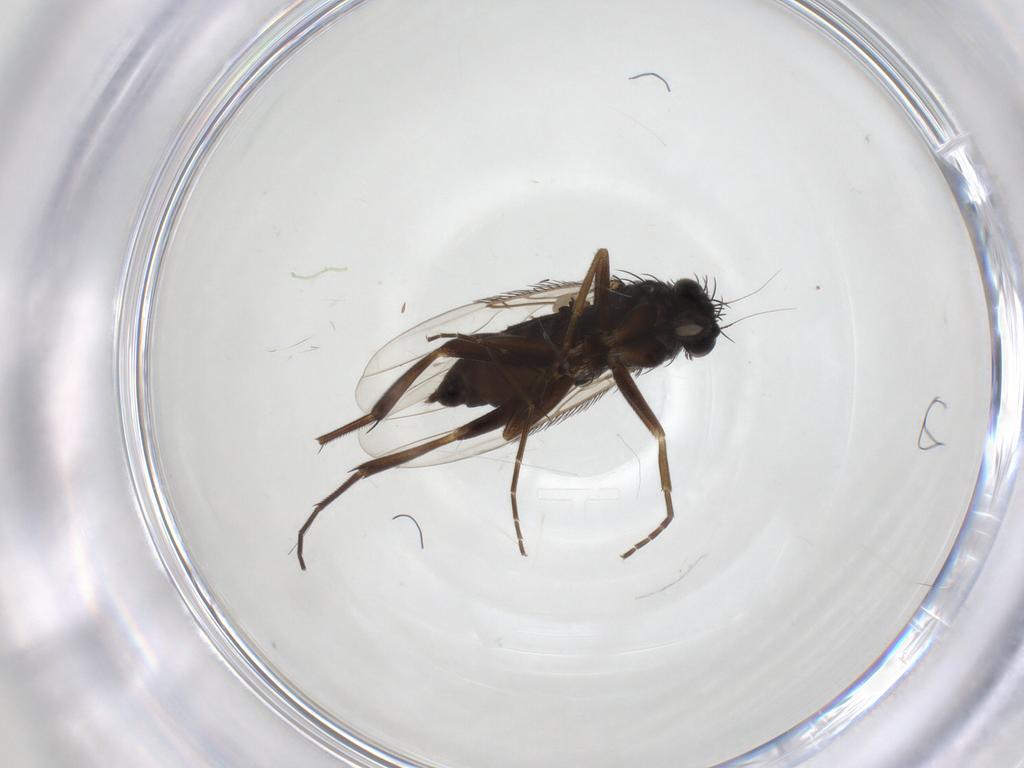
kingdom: Animalia
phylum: Arthropoda
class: Insecta
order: Diptera
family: Phoridae
